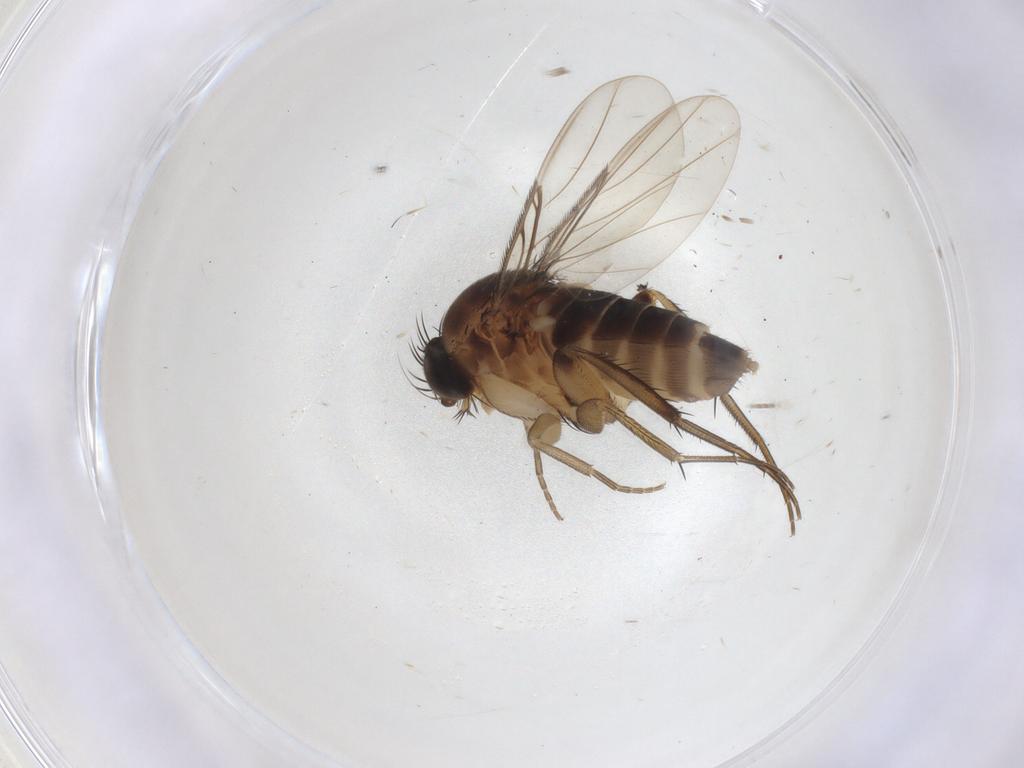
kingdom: Animalia
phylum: Arthropoda
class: Insecta
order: Diptera
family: Phoridae
